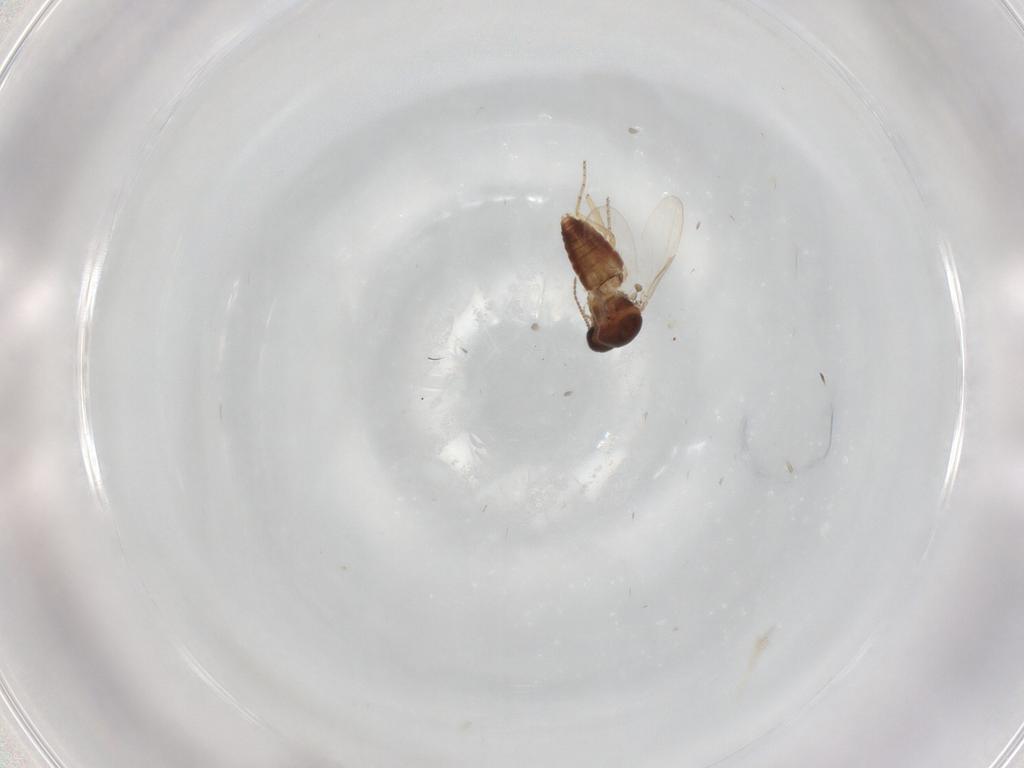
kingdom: Animalia
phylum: Arthropoda
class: Insecta
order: Diptera
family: Ceratopogonidae
